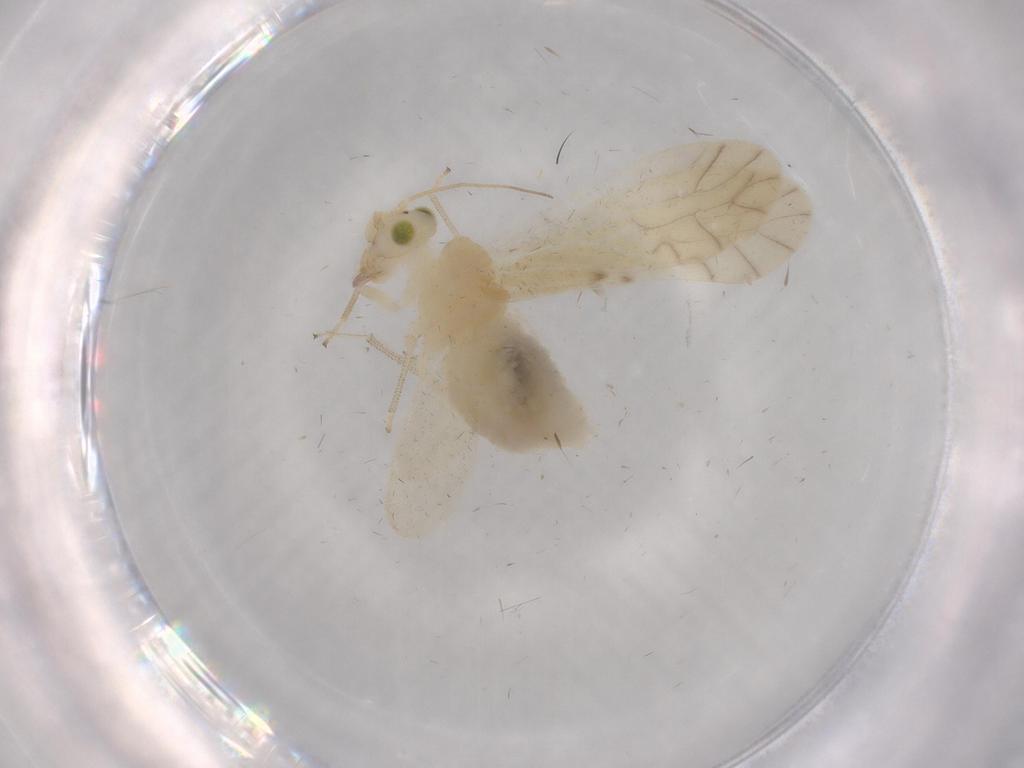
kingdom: Animalia
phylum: Arthropoda
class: Insecta
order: Psocodea
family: Caeciliusidae
